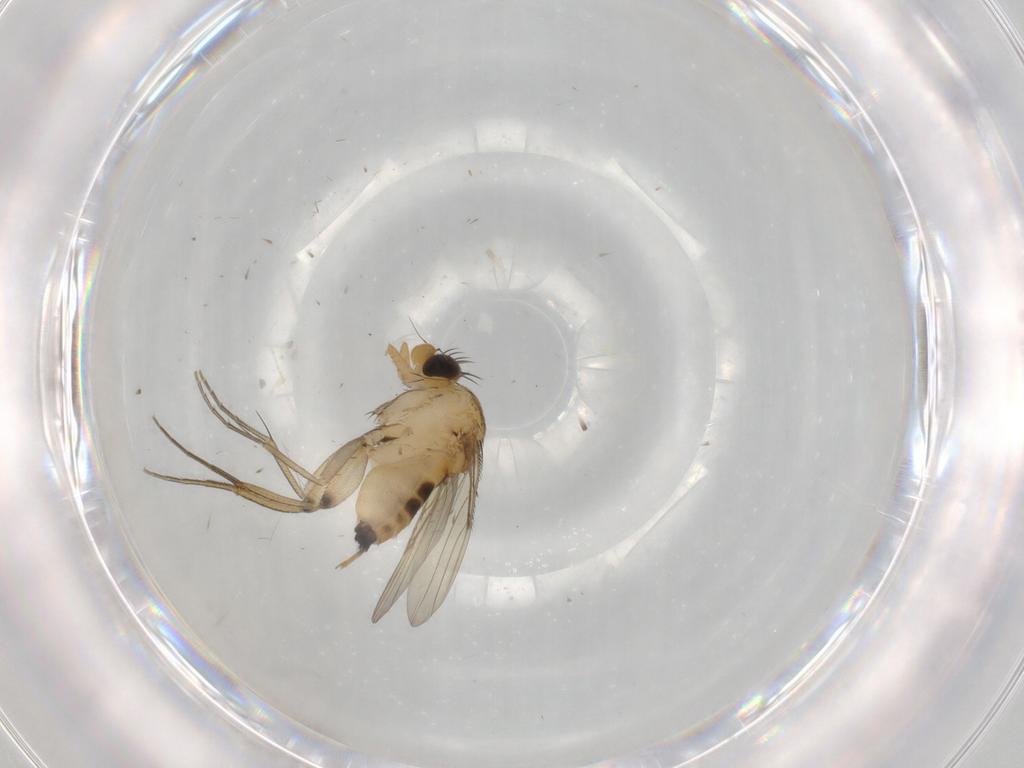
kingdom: Animalia
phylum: Arthropoda
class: Insecta
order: Diptera
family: Phoridae
